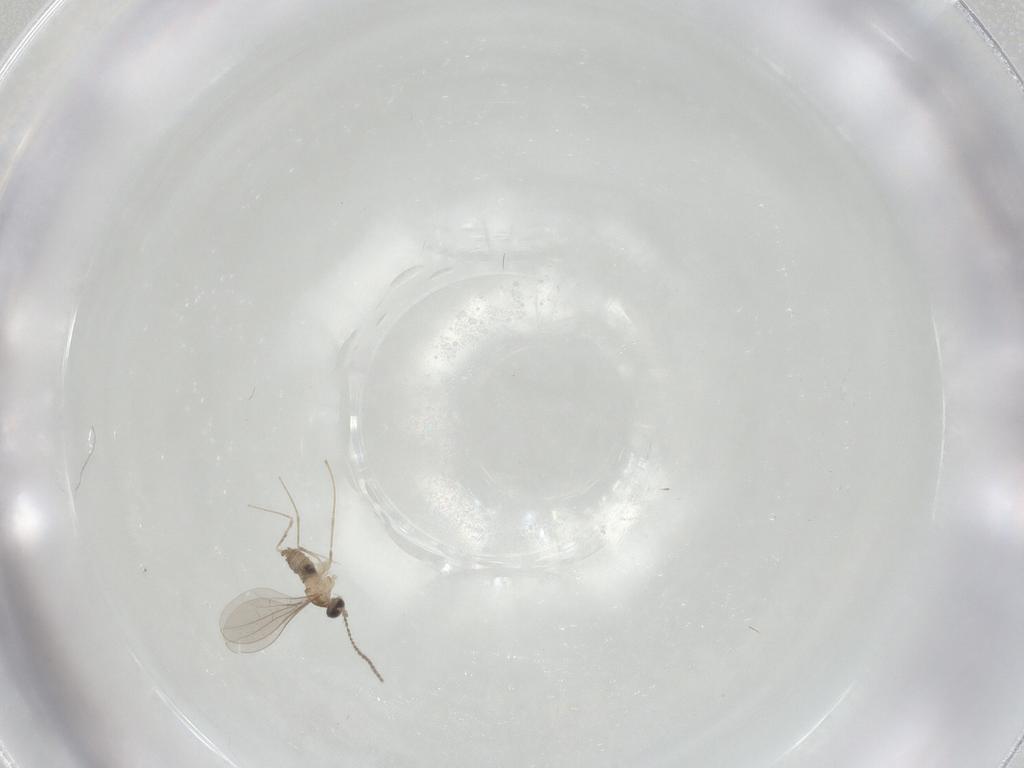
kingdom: Animalia
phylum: Arthropoda
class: Insecta
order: Diptera
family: Cecidomyiidae
